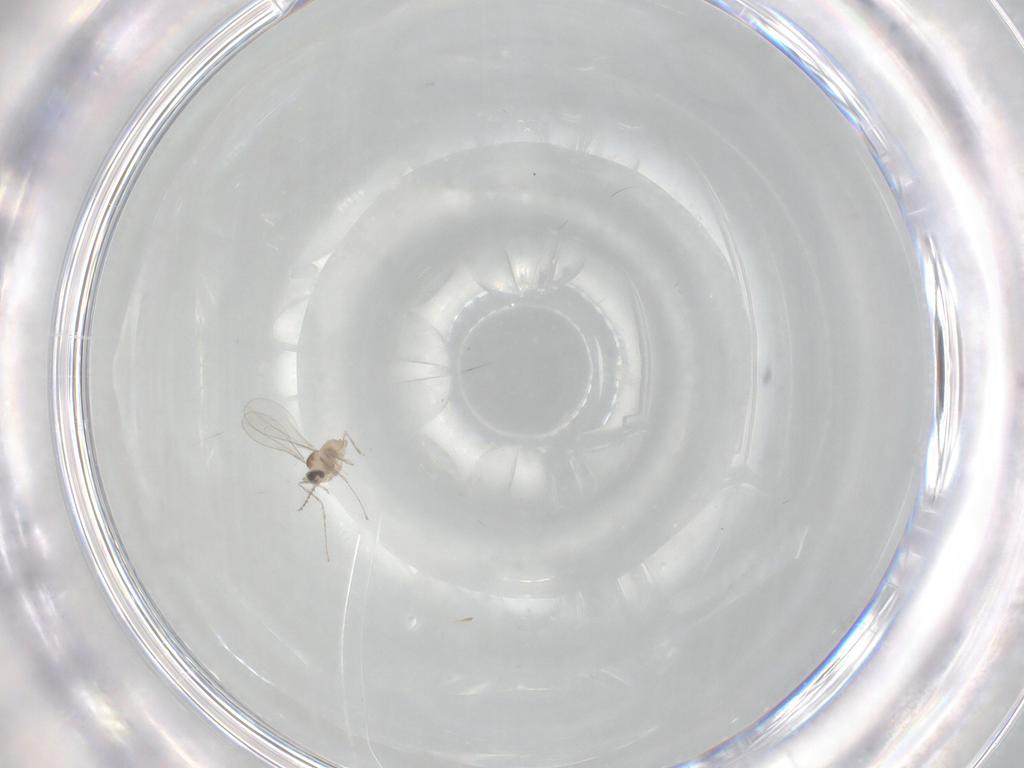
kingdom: Animalia
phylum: Arthropoda
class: Insecta
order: Diptera
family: Cecidomyiidae
